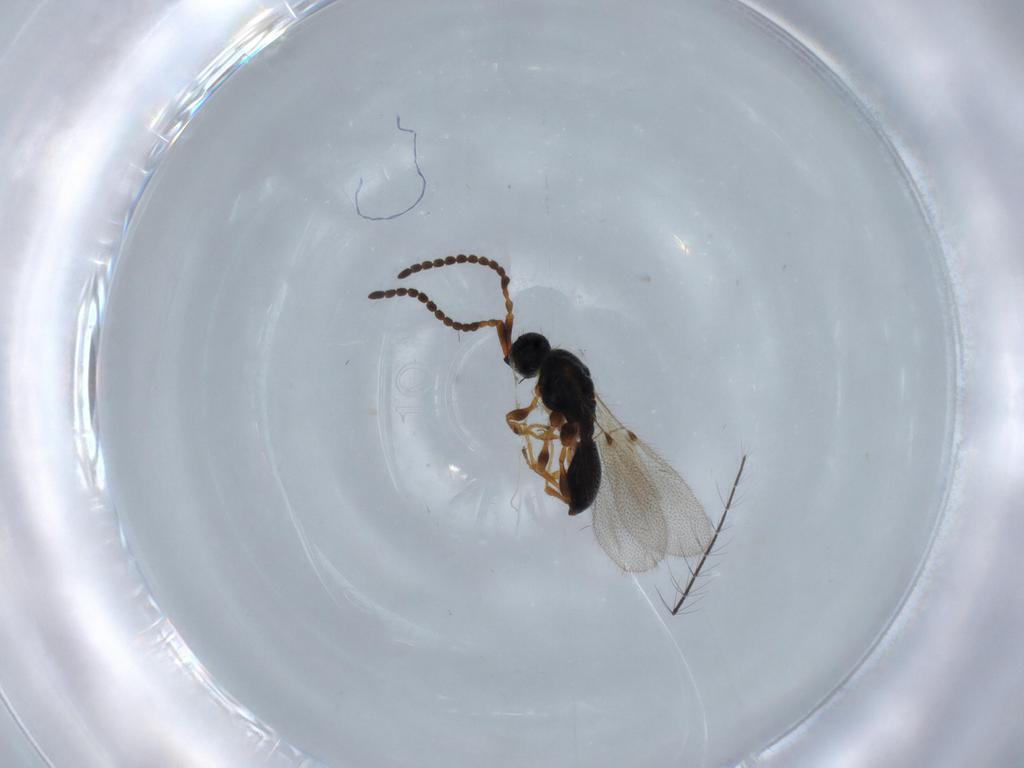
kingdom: Animalia
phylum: Arthropoda
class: Insecta
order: Hymenoptera
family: Diapriidae
